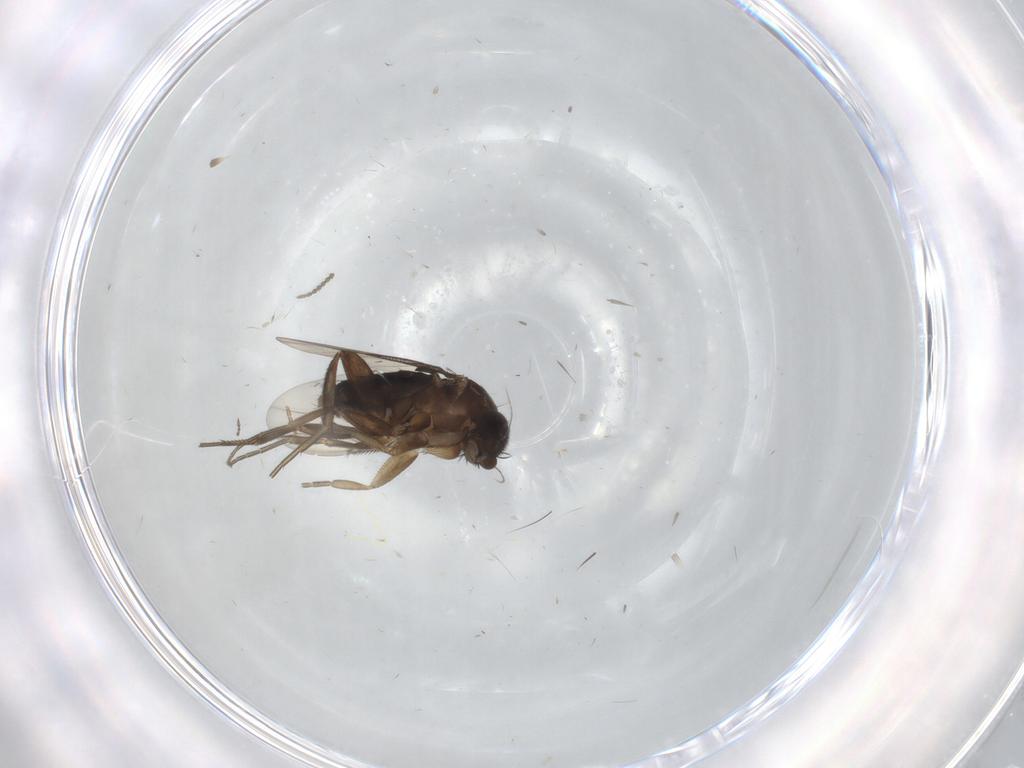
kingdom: Animalia
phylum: Arthropoda
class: Insecta
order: Diptera
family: Phoridae
